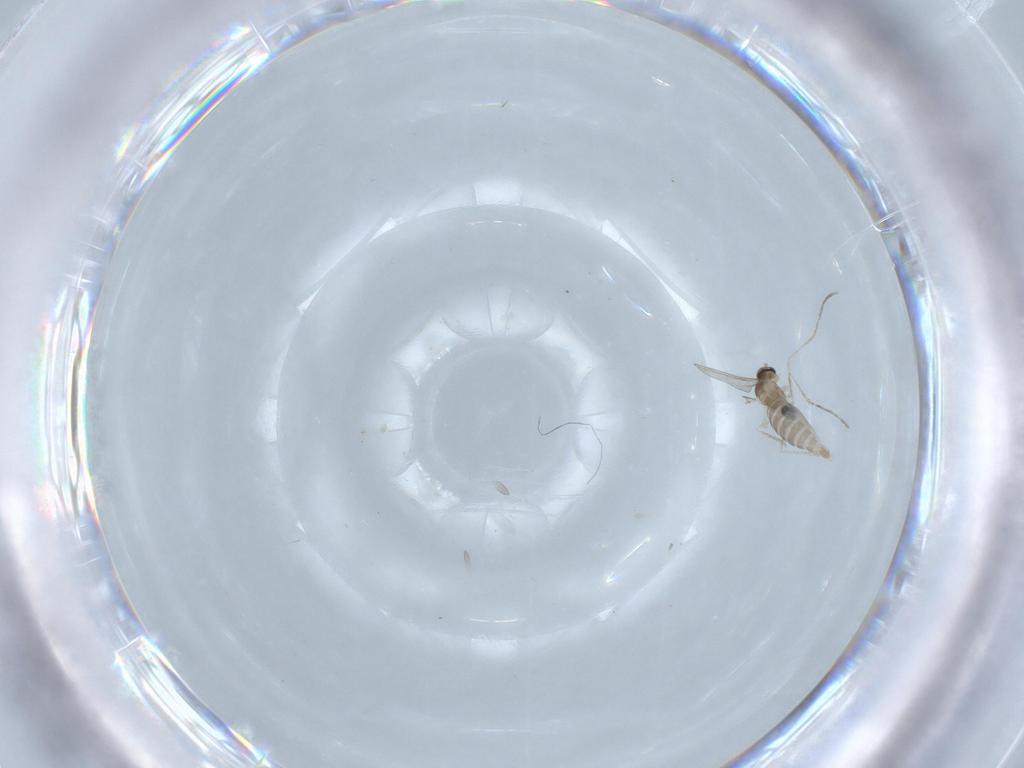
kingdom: Animalia
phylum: Arthropoda
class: Insecta
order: Diptera
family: Cecidomyiidae
